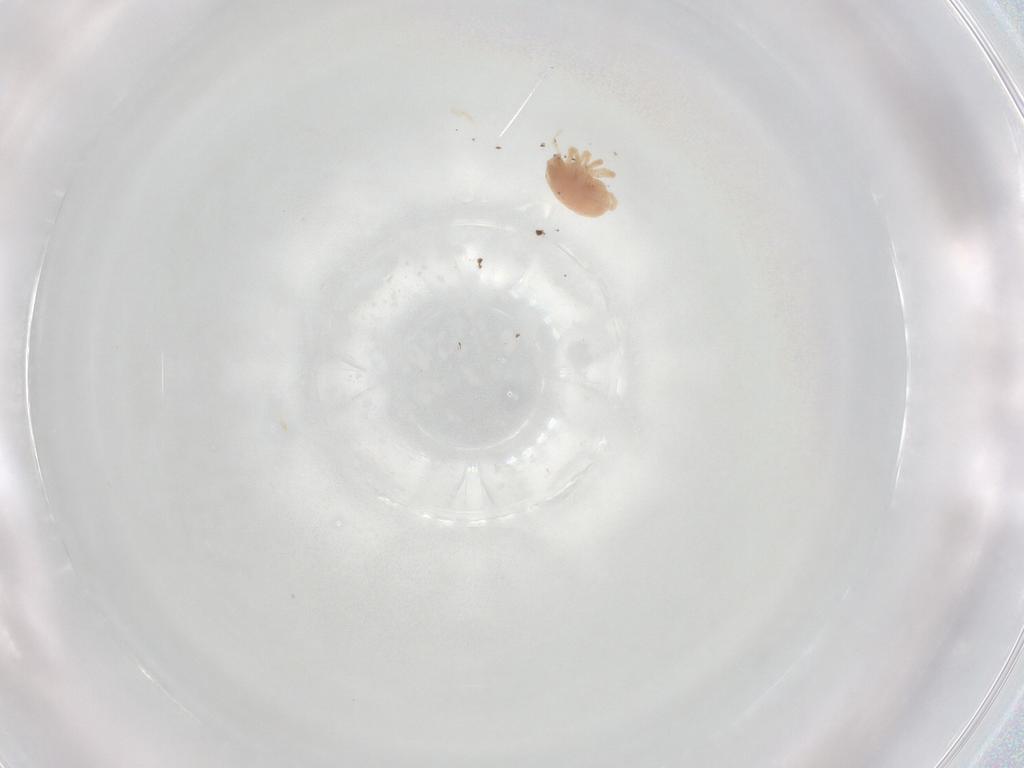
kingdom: Animalia
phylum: Arthropoda
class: Arachnida
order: Trombidiformes
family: Bdellidae
